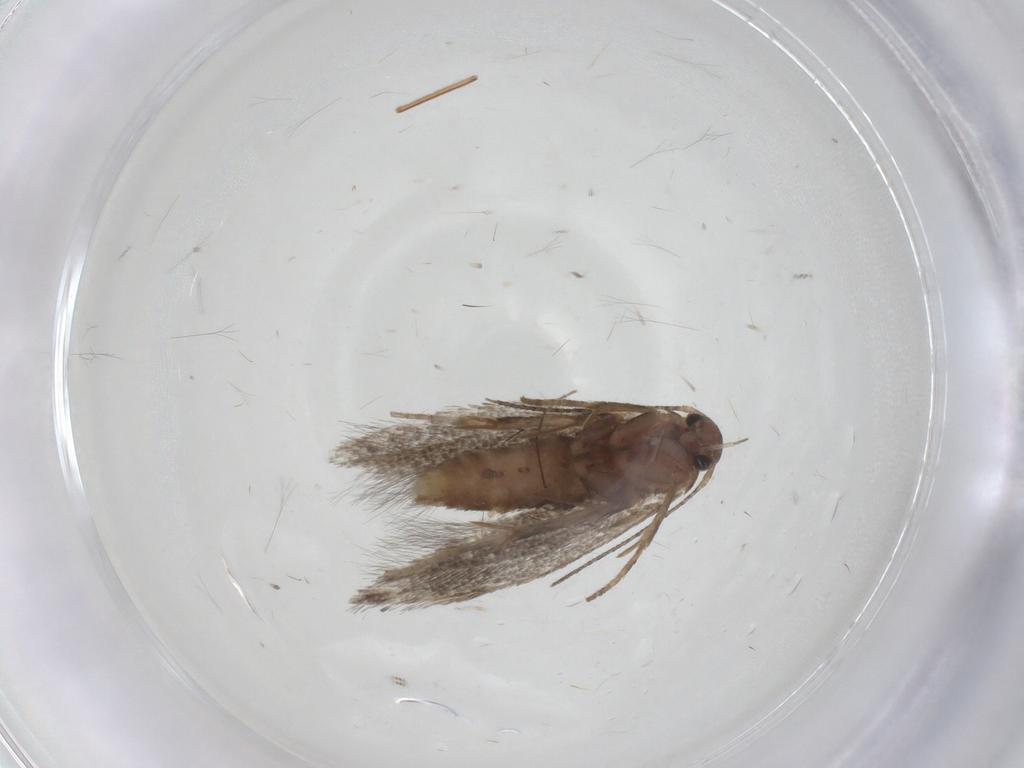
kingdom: Animalia
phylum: Arthropoda
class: Insecta
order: Lepidoptera
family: Elachistidae
